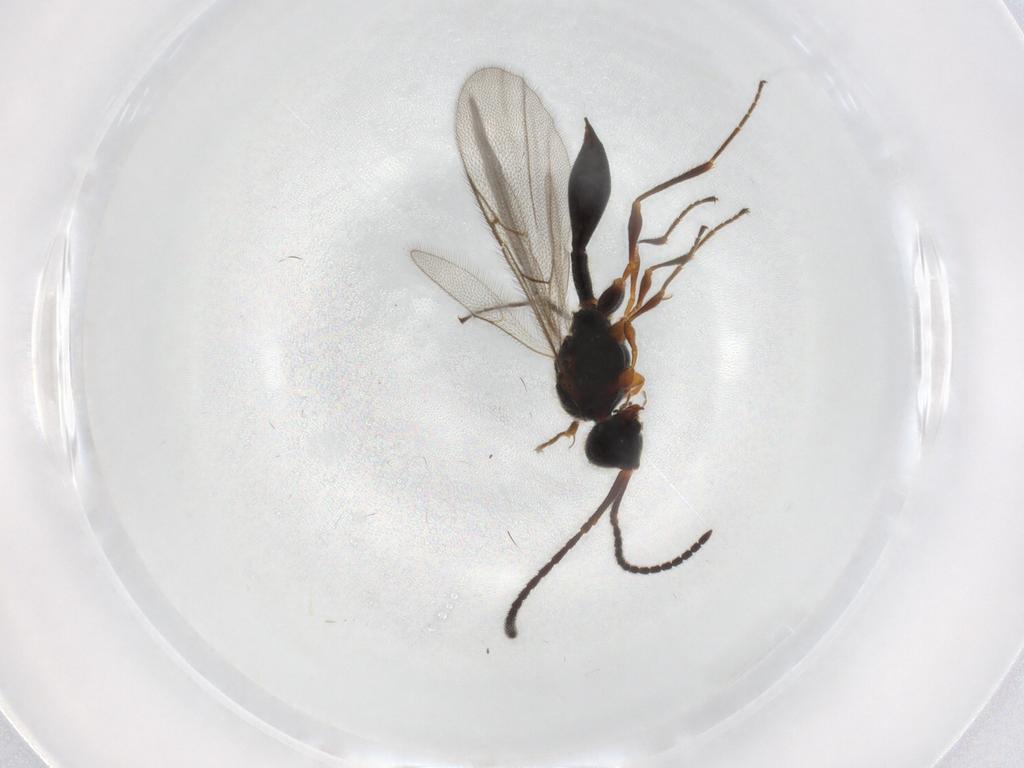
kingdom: Animalia
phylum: Arthropoda
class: Insecta
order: Hymenoptera
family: Diapriidae
